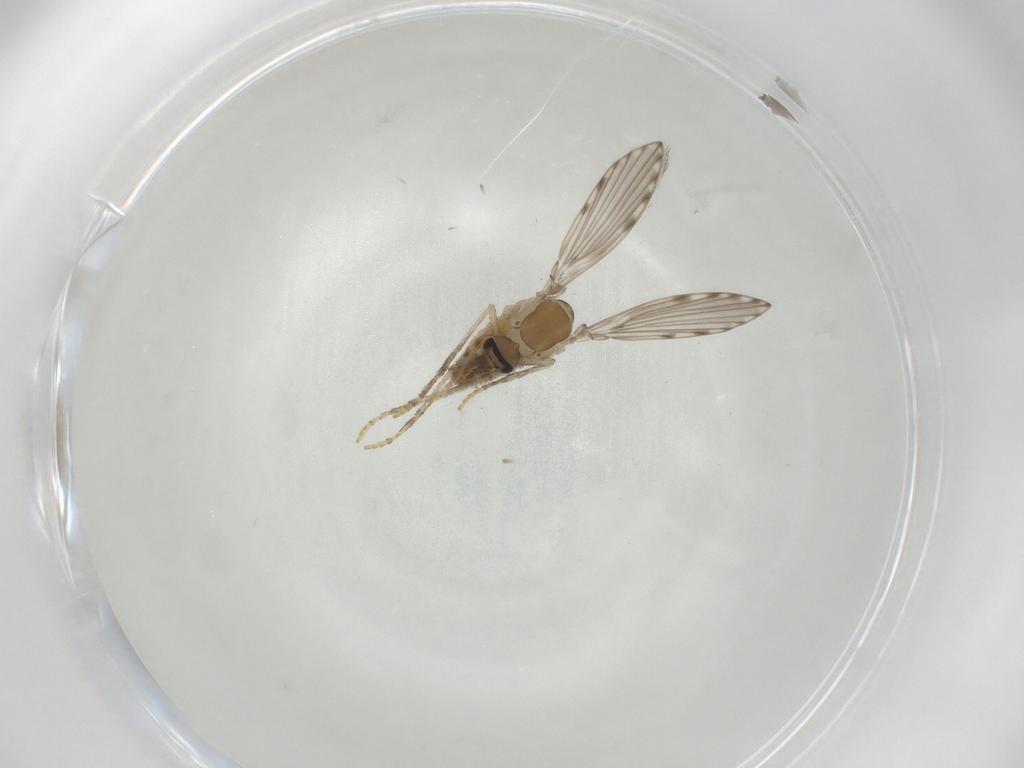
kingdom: Animalia
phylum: Arthropoda
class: Insecta
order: Diptera
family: Psychodidae
